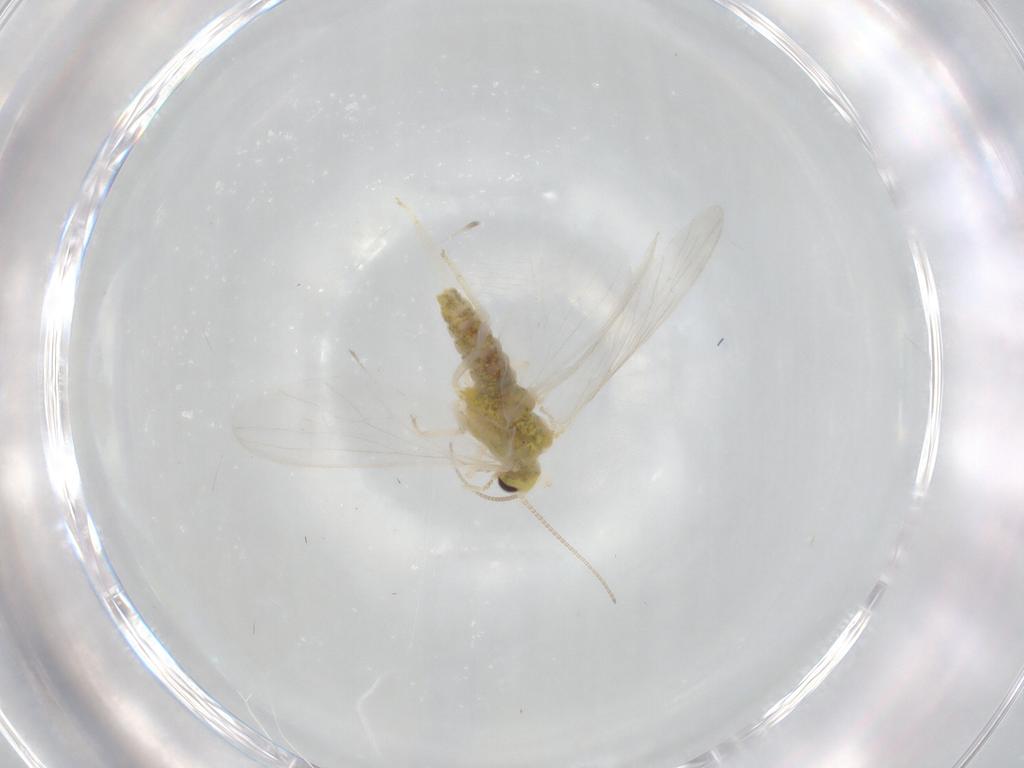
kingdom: Animalia
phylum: Arthropoda
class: Insecta
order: Neuroptera
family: Coniopterygidae
